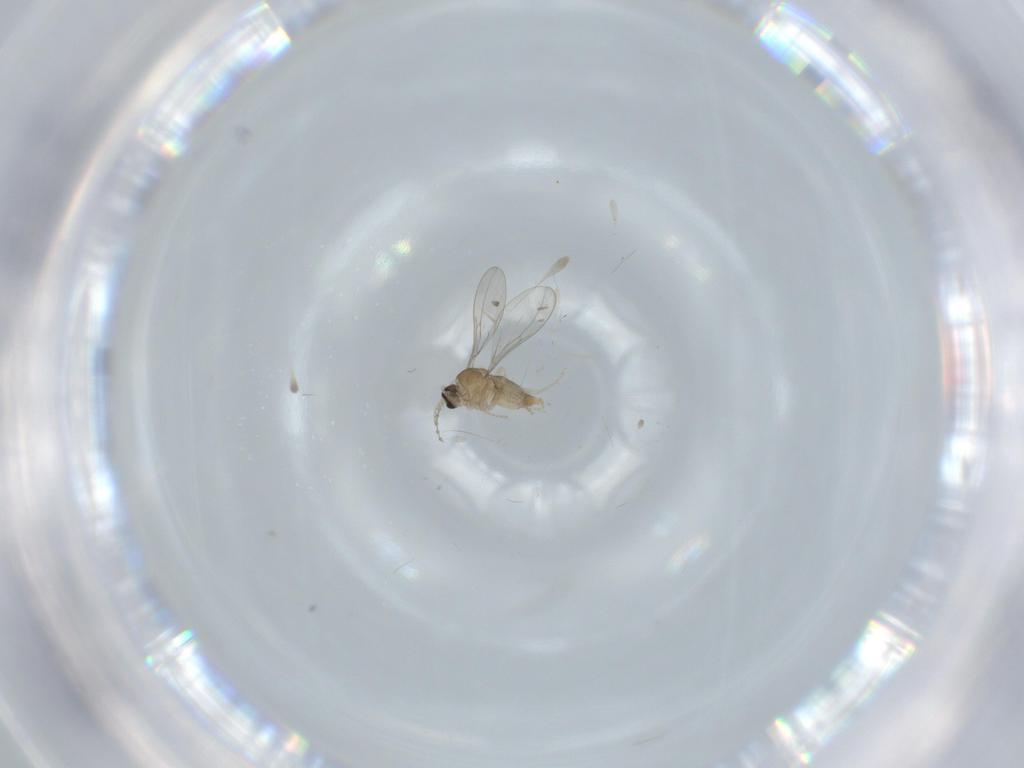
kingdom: Animalia
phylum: Arthropoda
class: Insecta
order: Diptera
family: Cecidomyiidae
